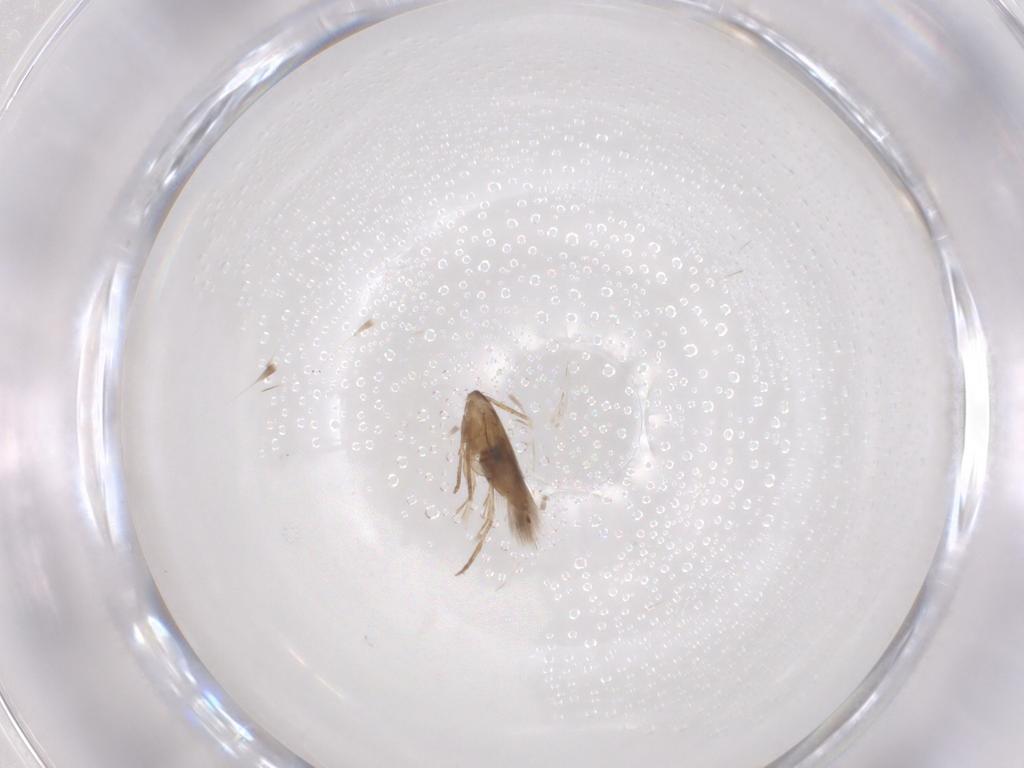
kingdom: Animalia
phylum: Arthropoda
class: Insecta
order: Lepidoptera
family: Heliozelidae
